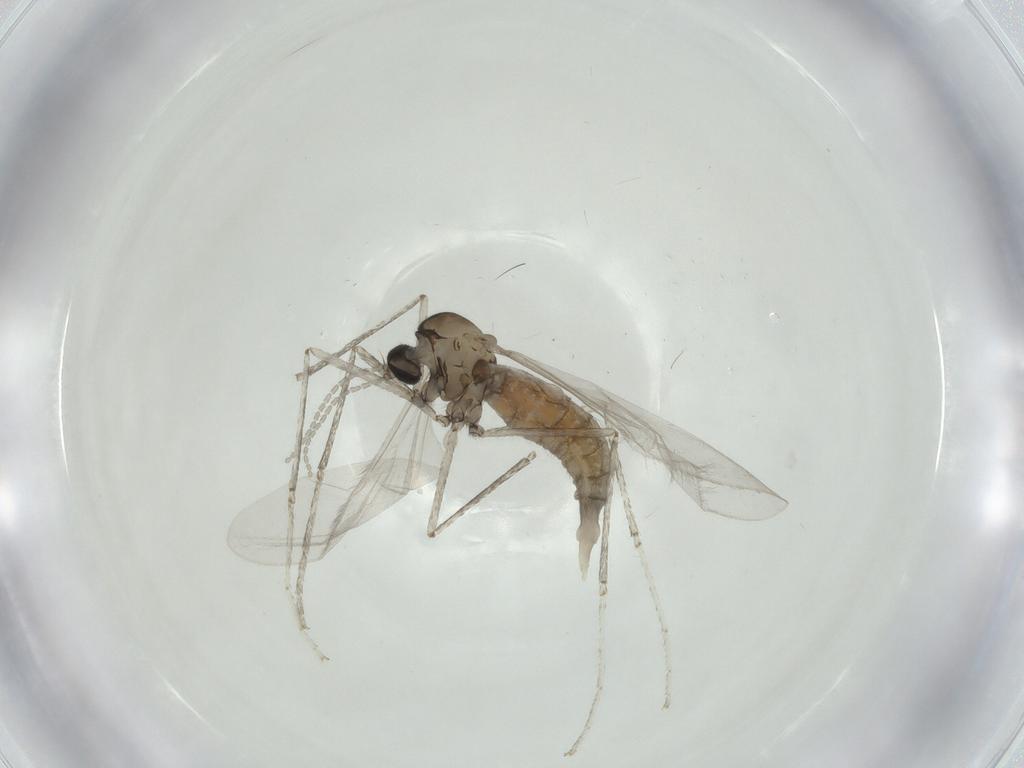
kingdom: Animalia
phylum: Arthropoda
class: Insecta
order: Diptera
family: Cecidomyiidae
